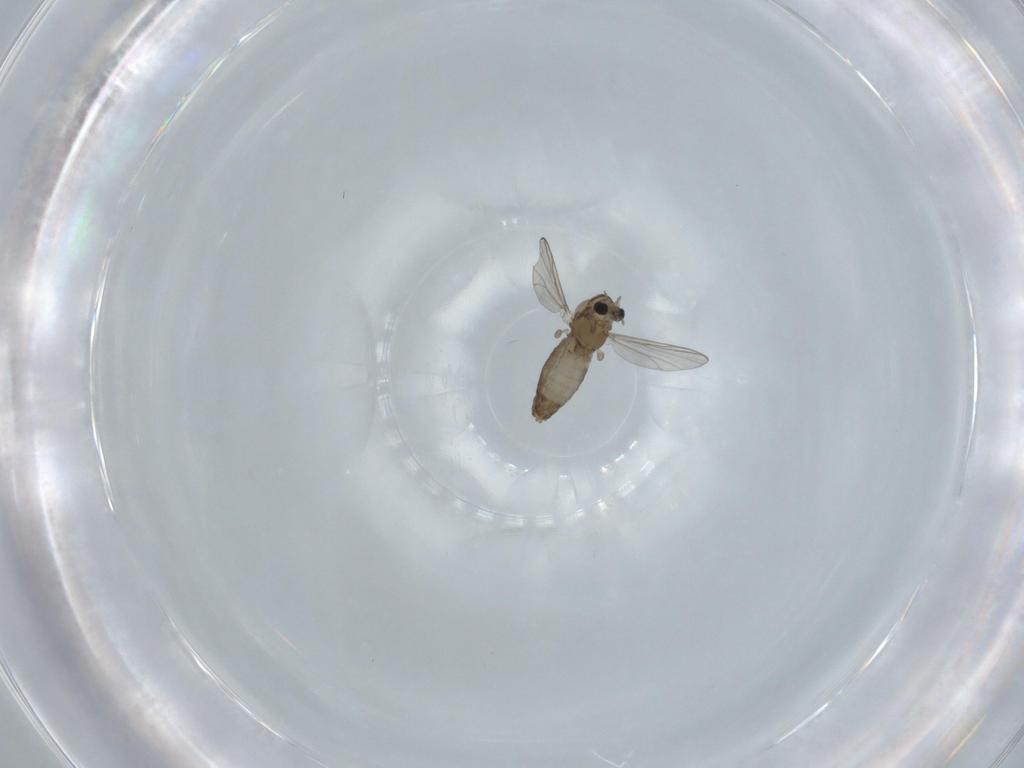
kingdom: Animalia
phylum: Arthropoda
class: Insecta
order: Diptera
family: Chironomidae
